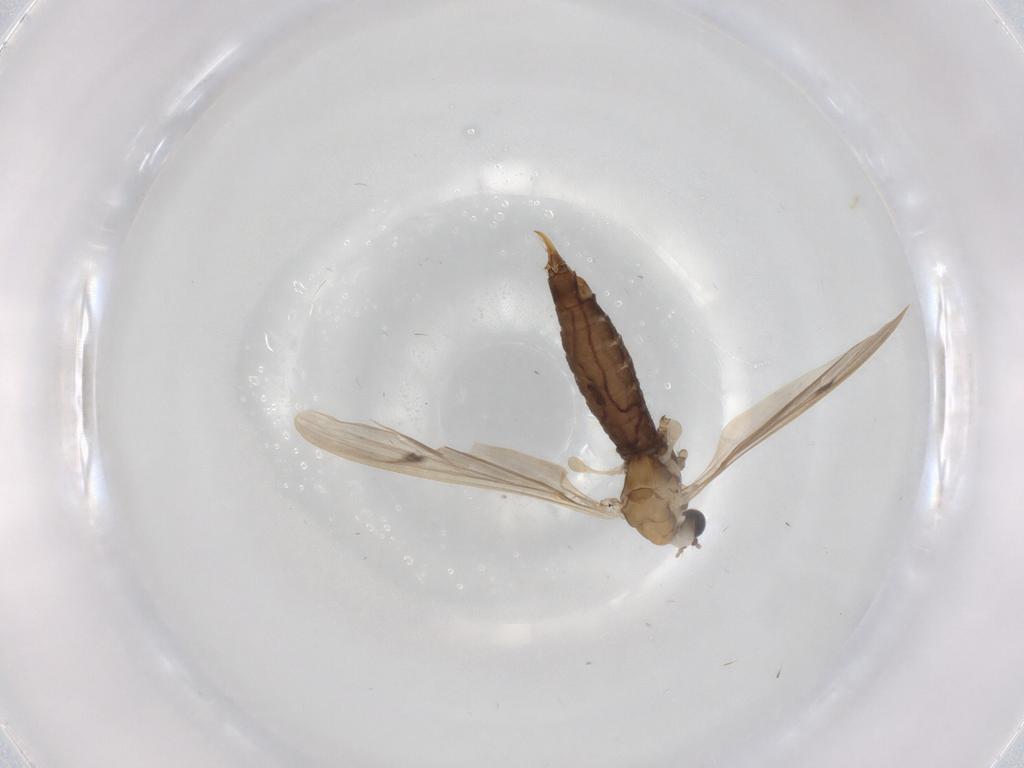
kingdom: Animalia
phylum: Arthropoda
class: Insecta
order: Diptera
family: Limoniidae
